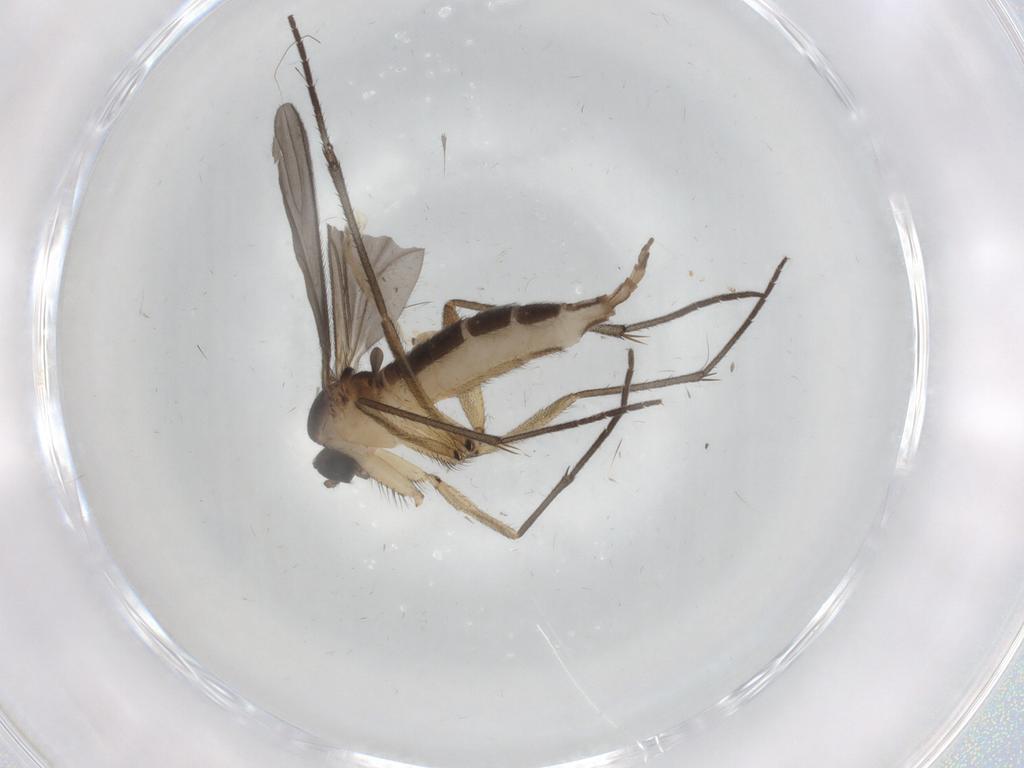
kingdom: Animalia
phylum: Arthropoda
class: Insecta
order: Diptera
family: Sciaridae
